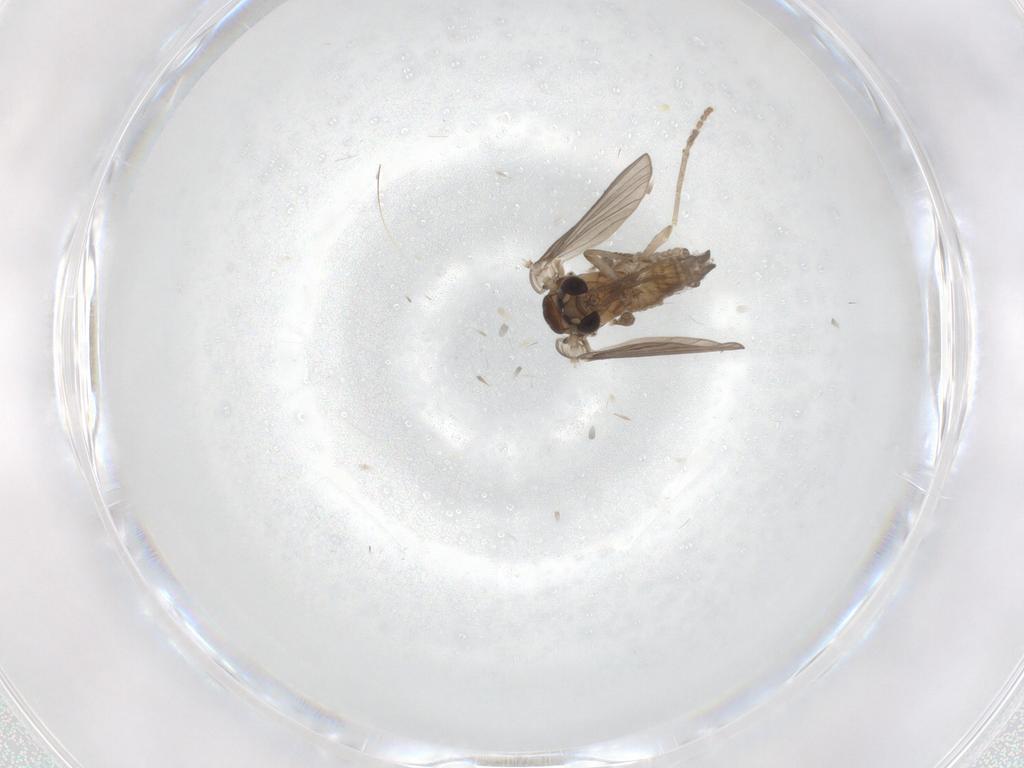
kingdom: Animalia
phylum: Arthropoda
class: Insecta
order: Diptera
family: Psychodidae
